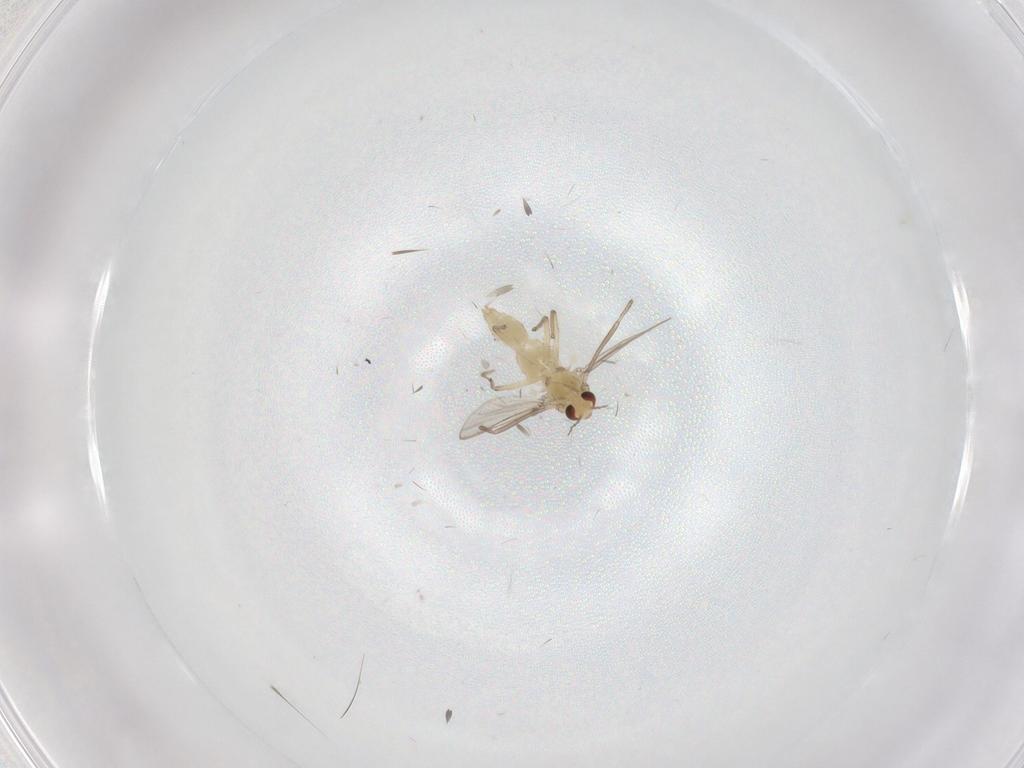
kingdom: Animalia
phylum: Arthropoda
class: Insecta
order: Diptera
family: Chironomidae
